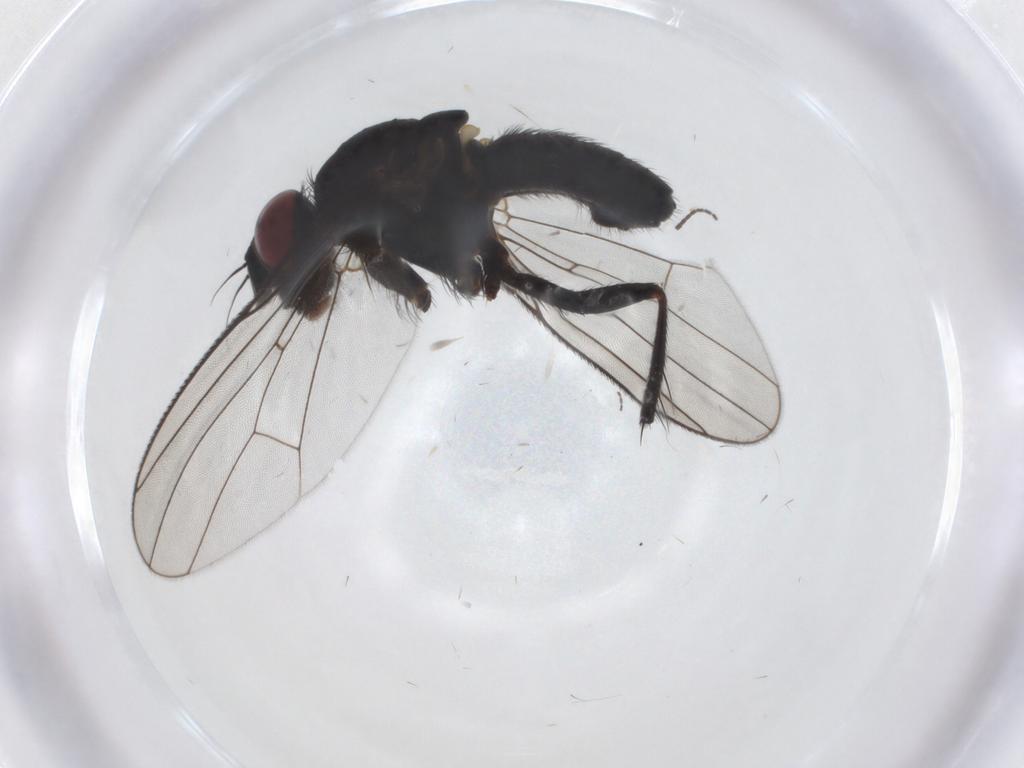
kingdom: Animalia
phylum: Arthropoda
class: Insecta
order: Diptera
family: Muscidae
